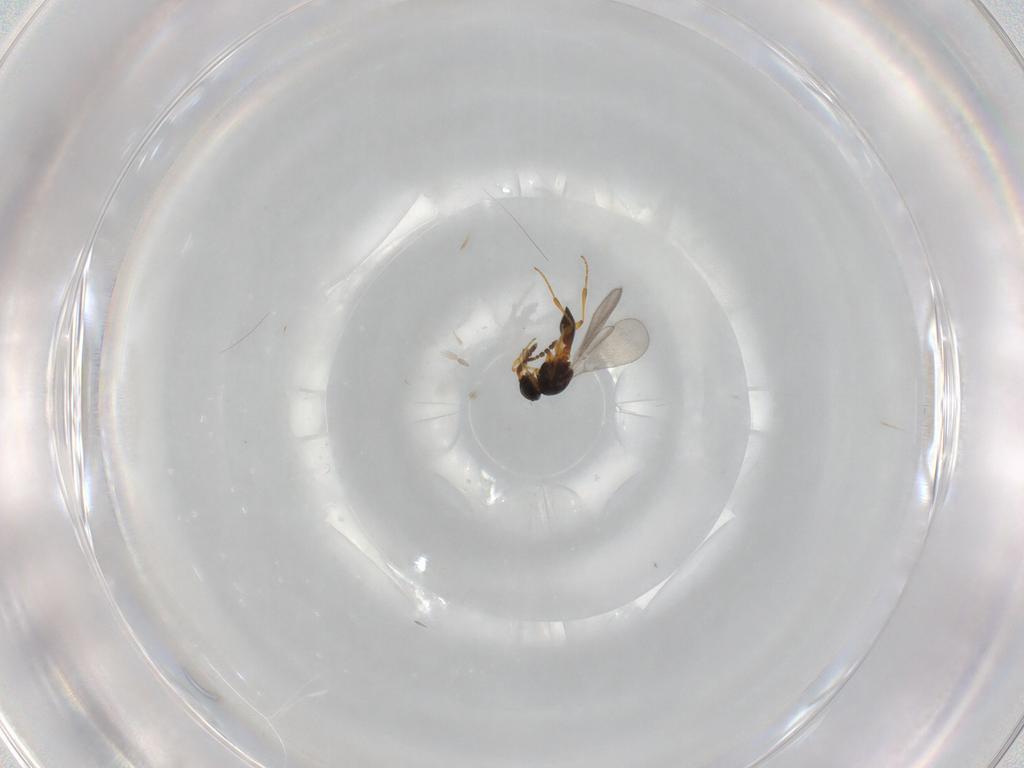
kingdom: Animalia
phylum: Arthropoda
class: Insecta
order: Hymenoptera
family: Platygastridae
